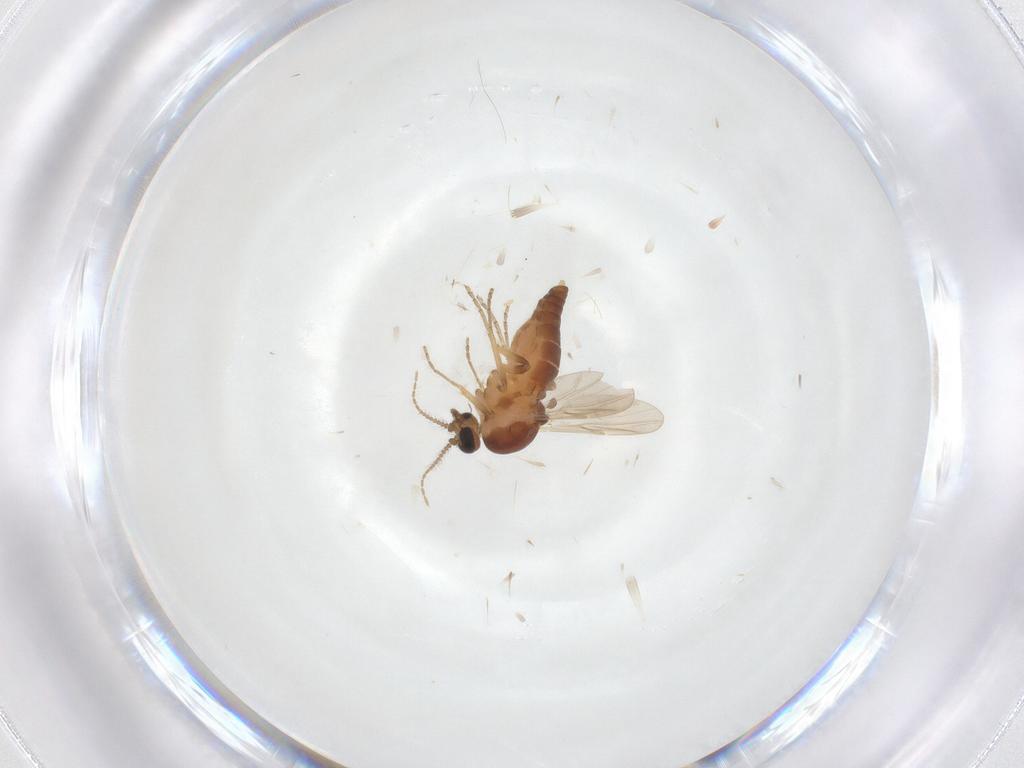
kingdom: Animalia
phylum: Arthropoda
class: Insecta
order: Diptera
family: Ceratopogonidae
